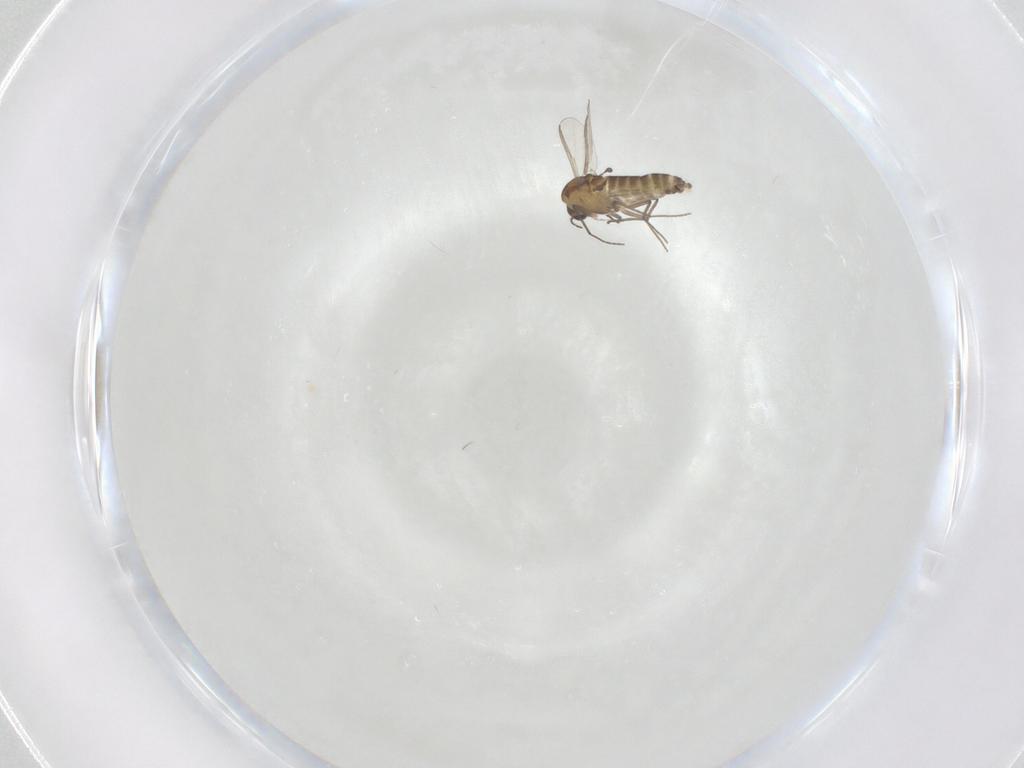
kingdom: Animalia
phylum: Arthropoda
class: Insecta
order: Diptera
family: Chironomidae
